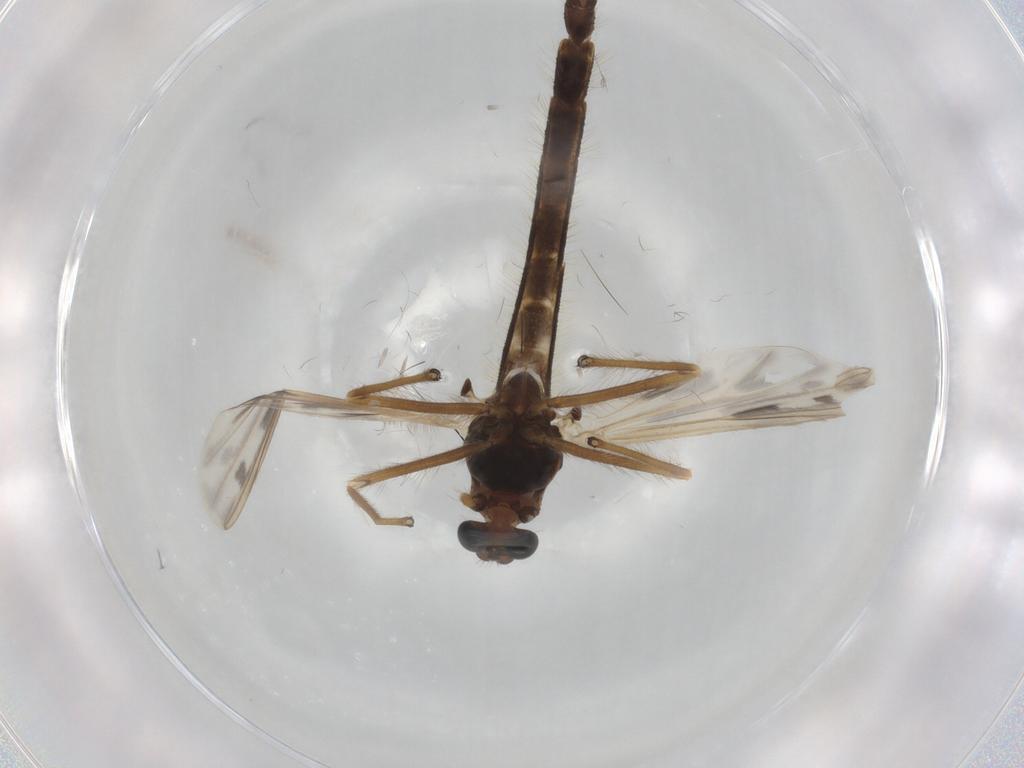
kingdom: Animalia
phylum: Arthropoda
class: Insecta
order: Diptera
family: Chironomidae
